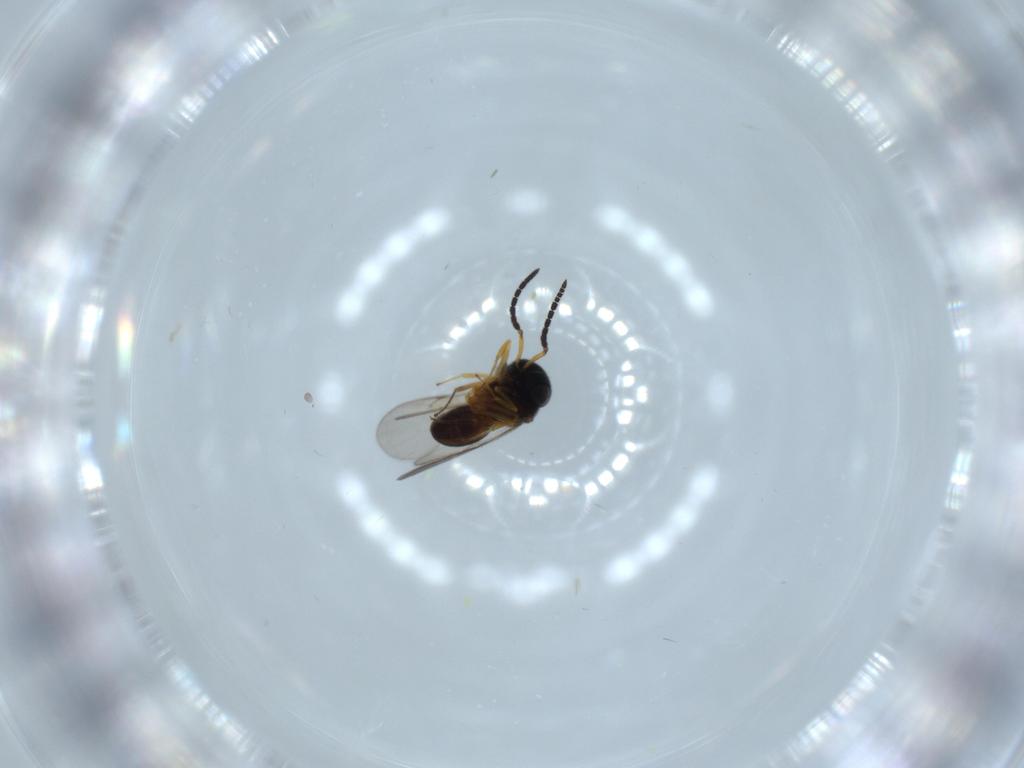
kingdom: Animalia
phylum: Arthropoda
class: Insecta
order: Hymenoptera
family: Scelionidae
